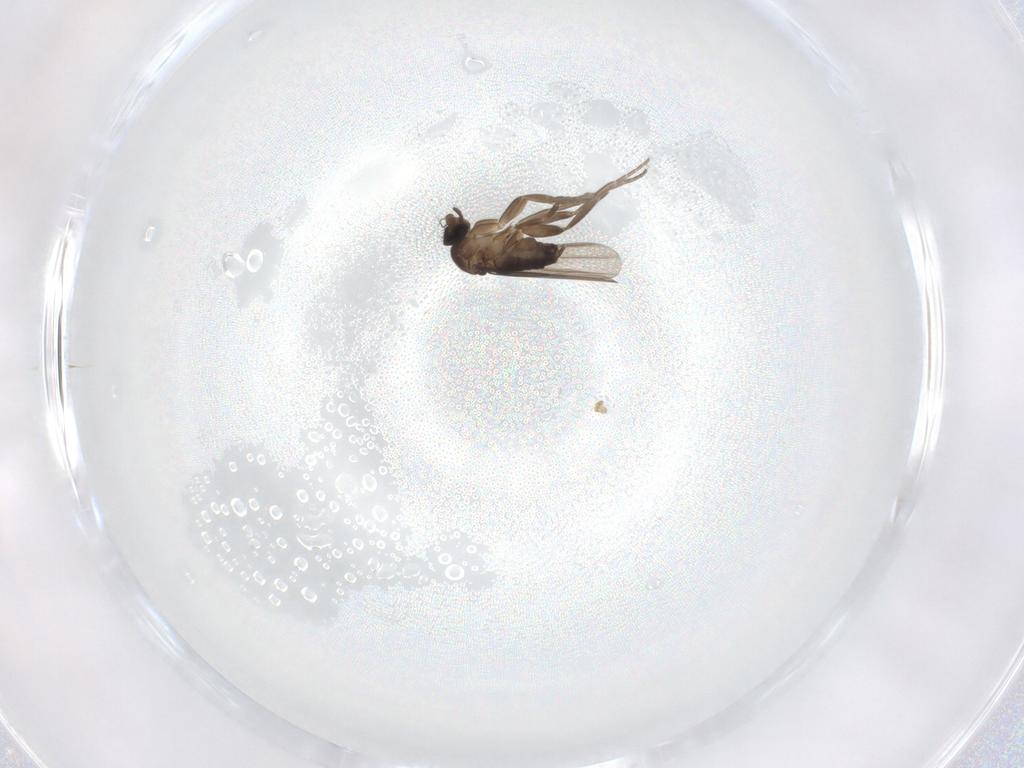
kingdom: Animalia
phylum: Arthropoda
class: Insecta
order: Diptera
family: Phoridae
